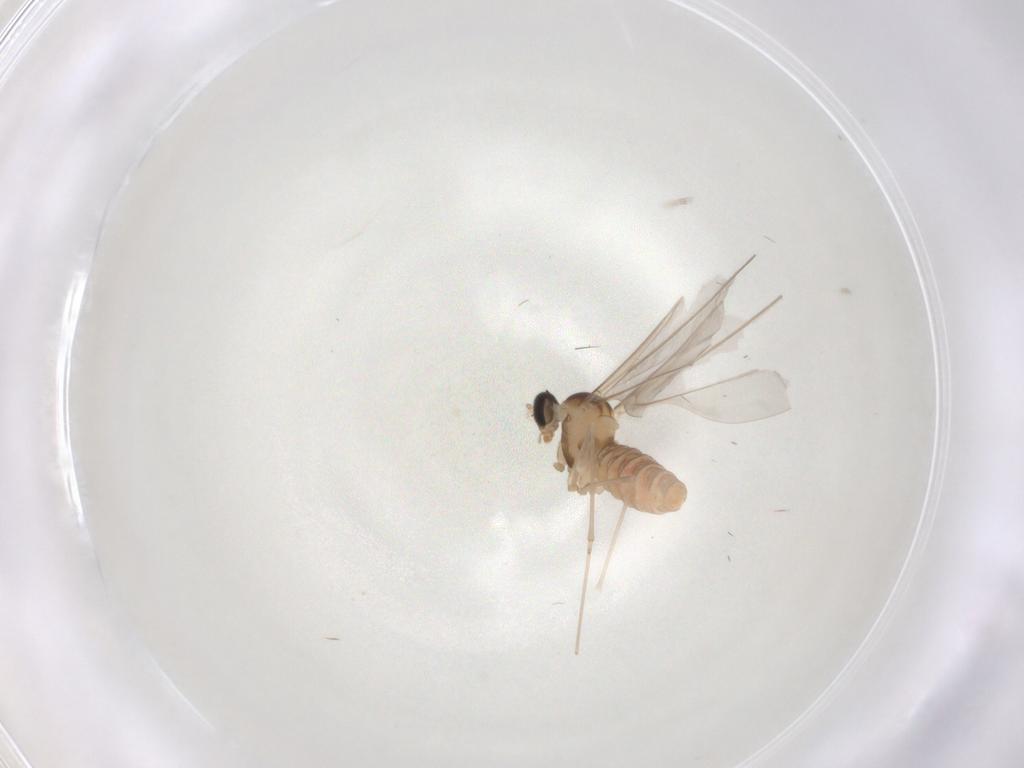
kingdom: Animalia
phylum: Arthropoda
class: Insecta
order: Diptera
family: Cecidomyiidae
